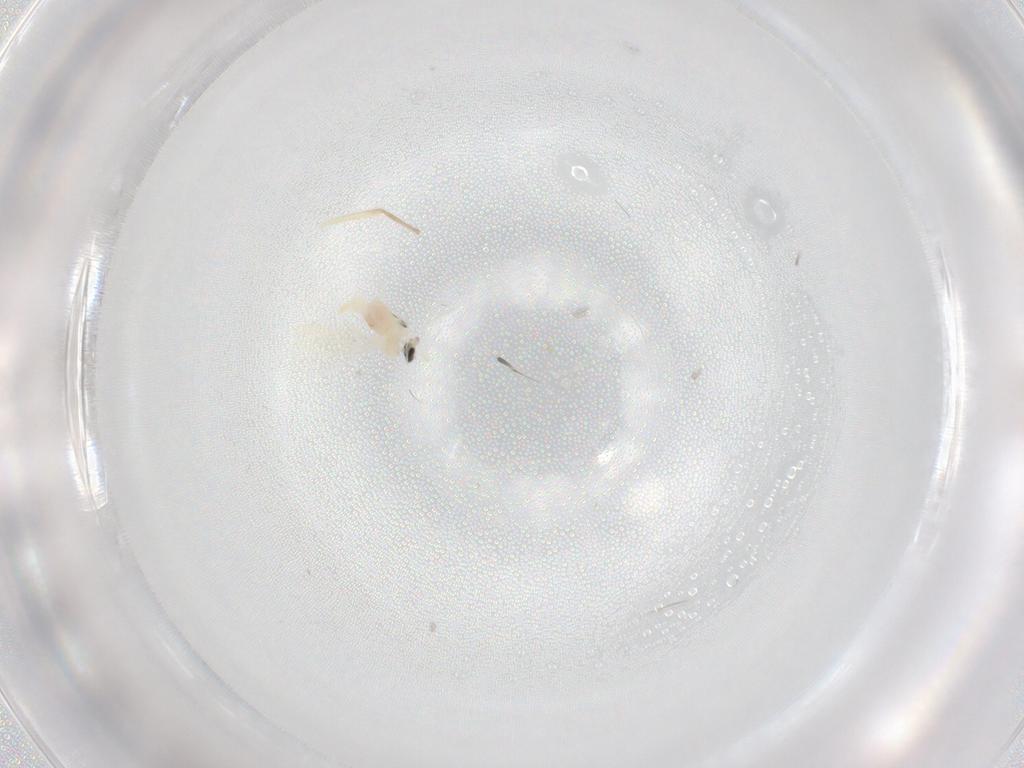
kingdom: Animalia
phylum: Arthropoda
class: Insecta
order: Diptera
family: Cecidomyiidae
